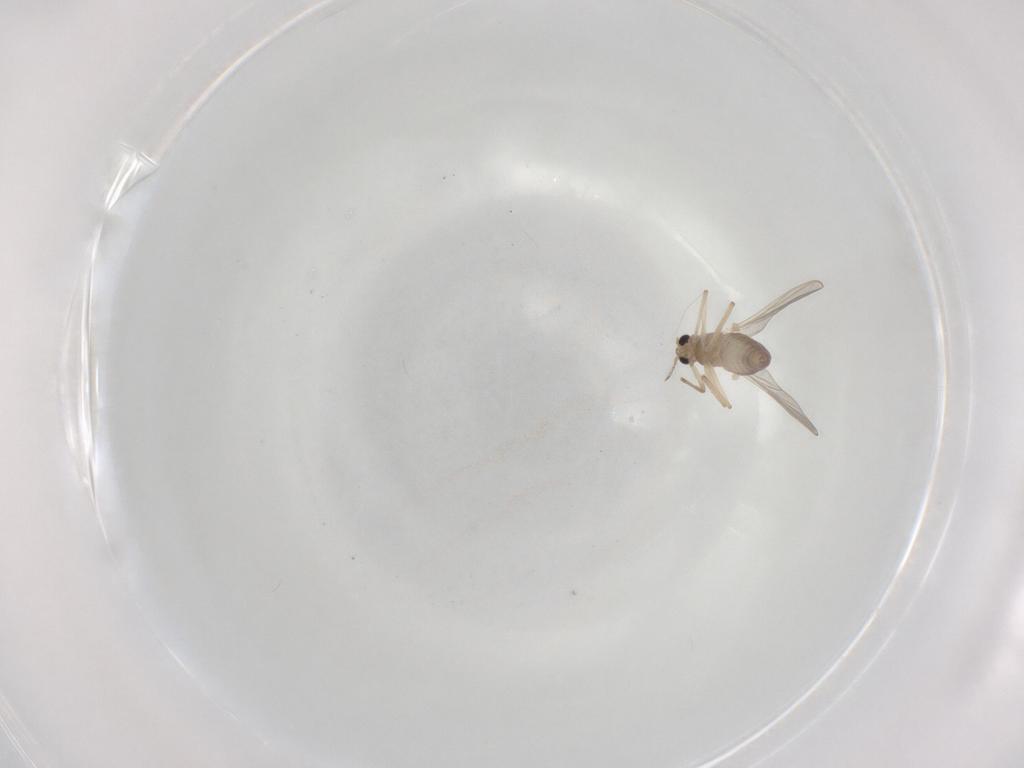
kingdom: Animalia
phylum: Arthropoda
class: Insecta
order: Diptera
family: Chironomidae
